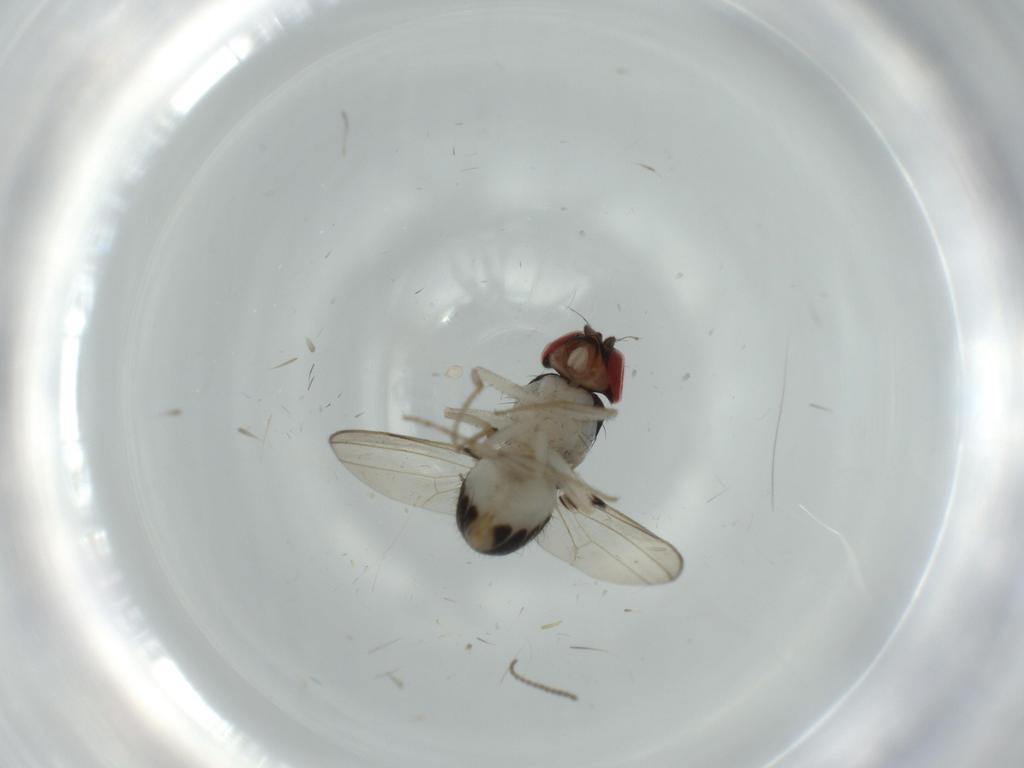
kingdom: Animalia
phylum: Arthropoda
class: Insecta
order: Diptera
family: Drosophilidae
